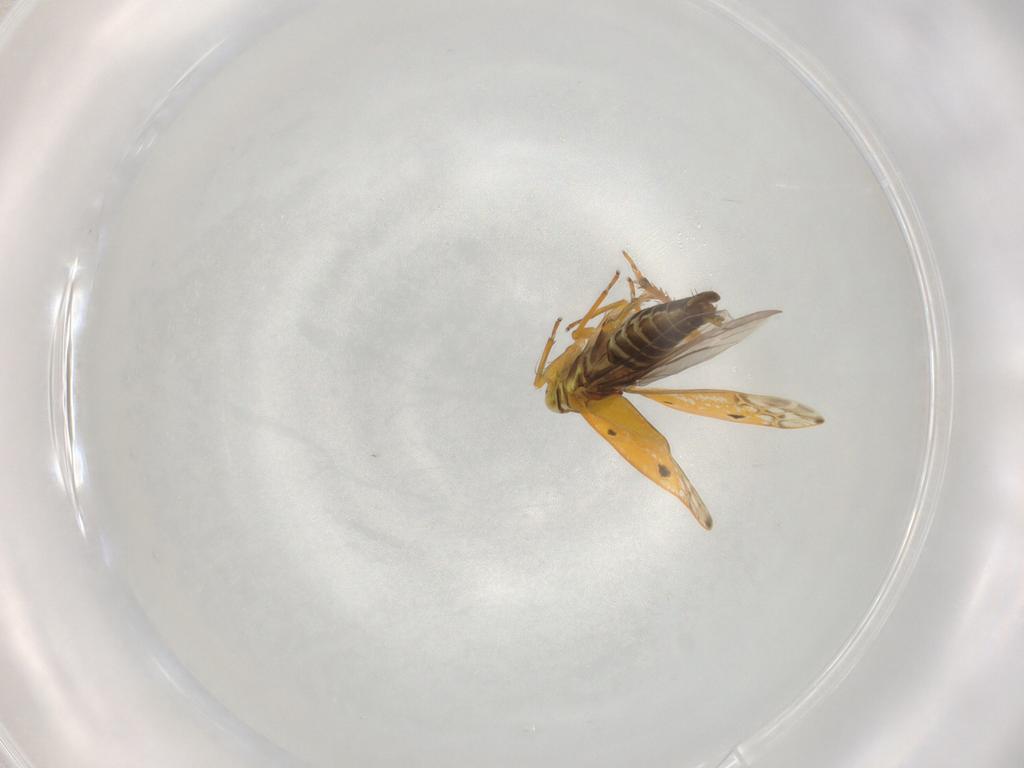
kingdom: Animalia
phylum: Arthropoda
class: Insecta
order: Hemiptera
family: Cicadellidae
